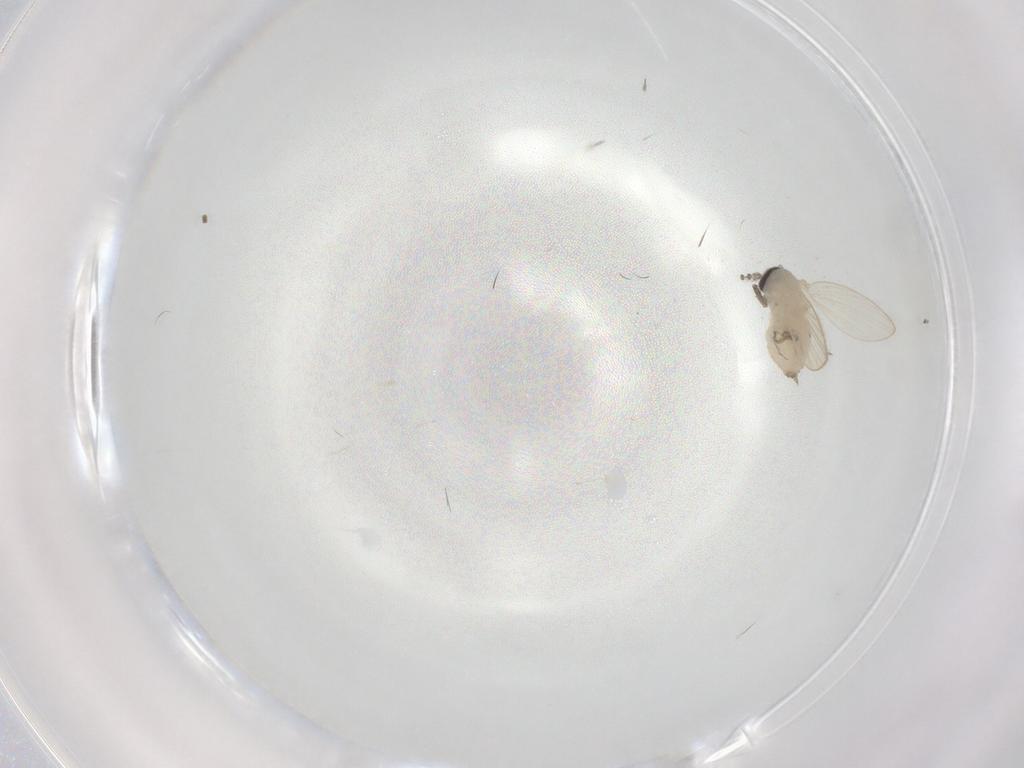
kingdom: Animalia
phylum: Arthropoda
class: Insecta
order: Diptera
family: Psychodidae
